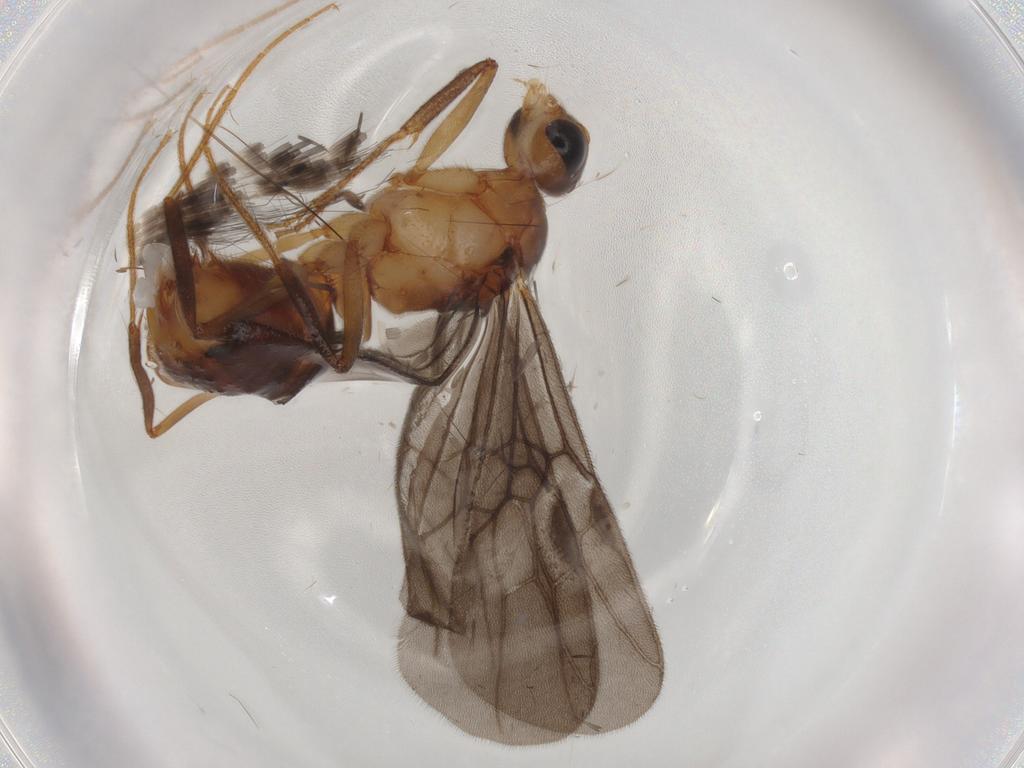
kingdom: Animalia
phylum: Arthropoda
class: Insecta
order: Hymenoptera
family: Formicidae
